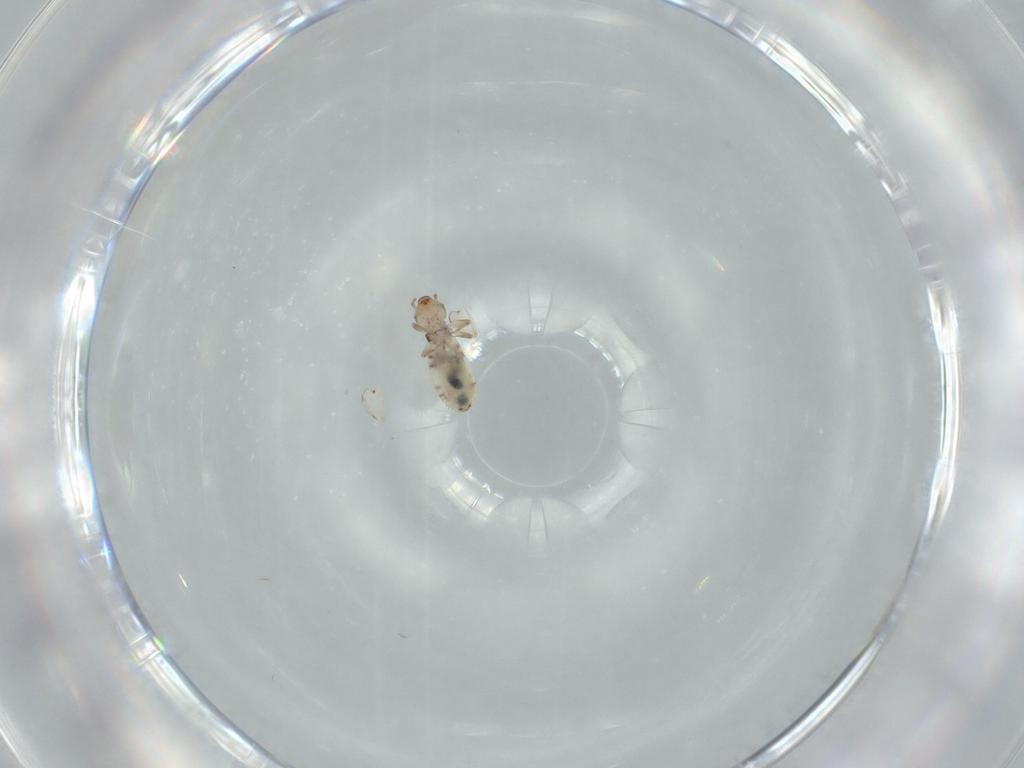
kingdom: Animalia
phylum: Arthropoda
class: Insecta
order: Psocodea
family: Liposcelididae
